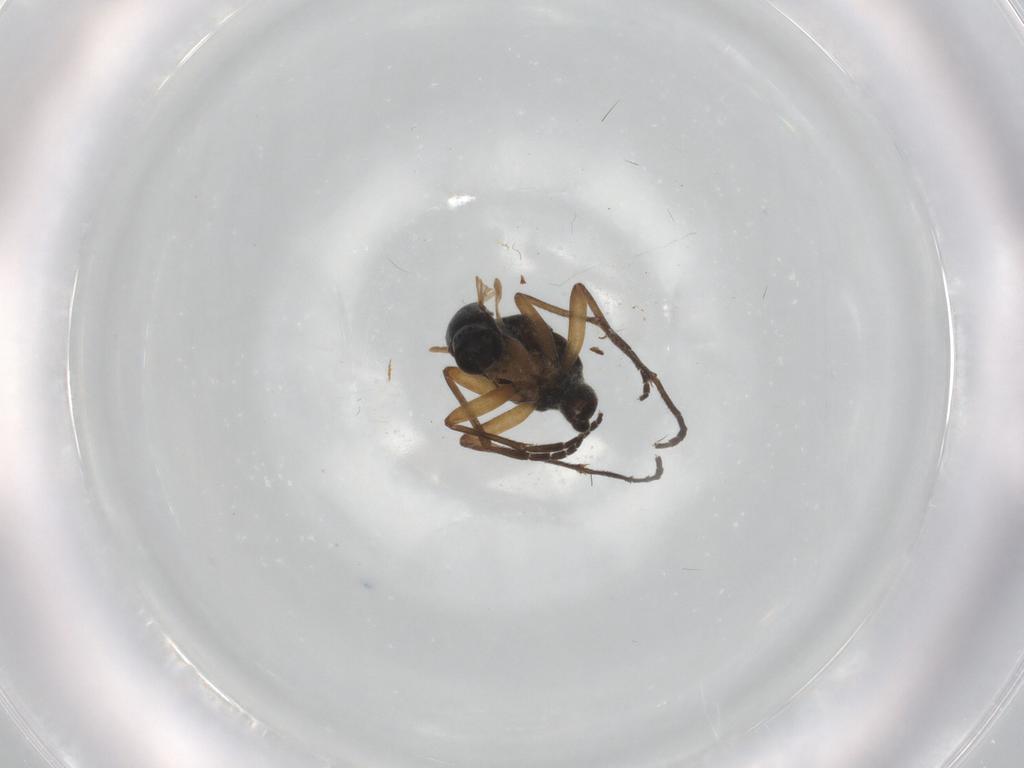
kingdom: Animalia
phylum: Arthropoda
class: Insecta
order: Diptera
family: Sciaridae
